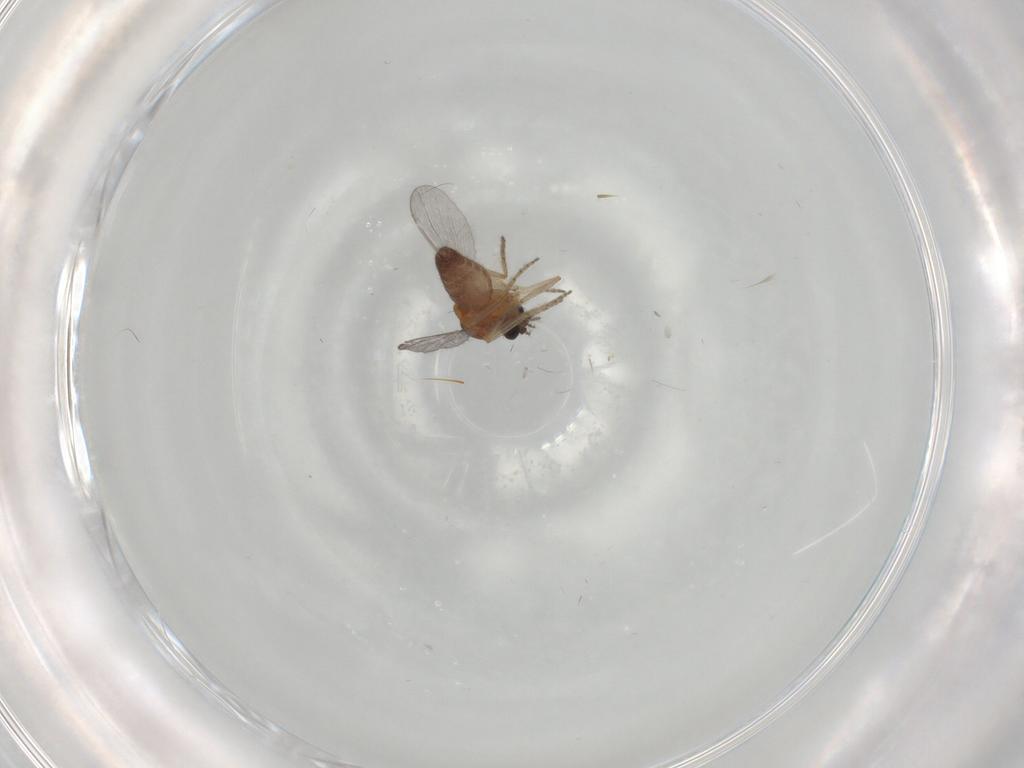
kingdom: Animalia
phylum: Arthropoda
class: Insecta
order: Diptera
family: Ceratopogonidae
